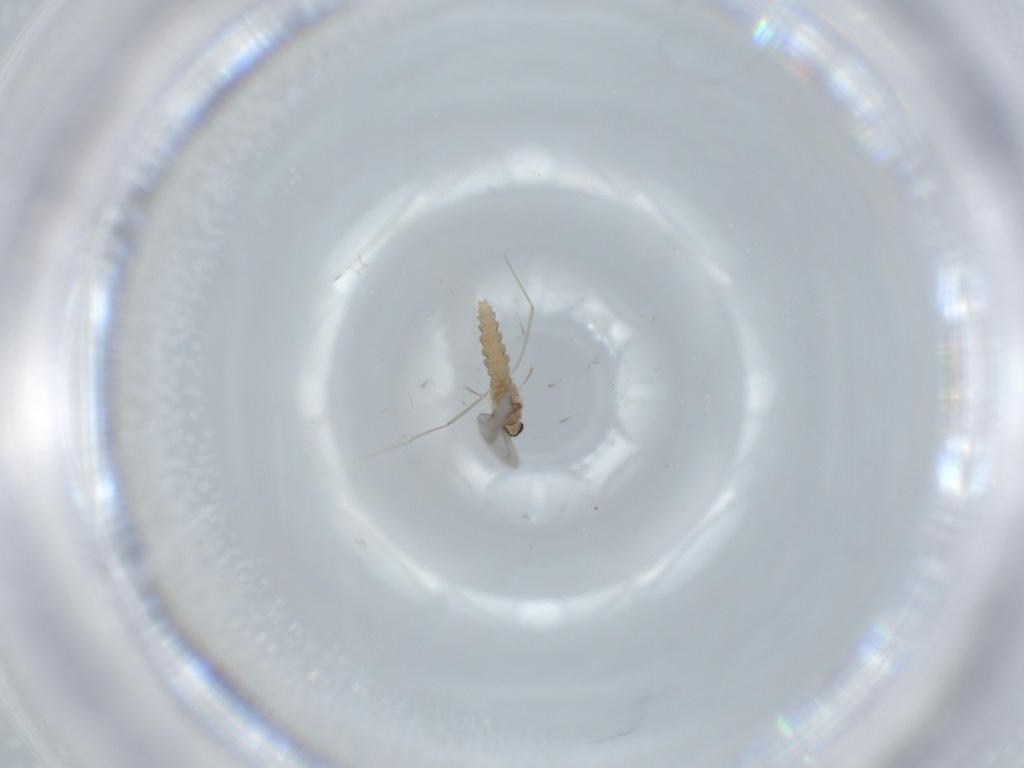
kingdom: Animalia
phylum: Arthropoda
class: Insecta
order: Diptera
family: Cecidomyiidae
